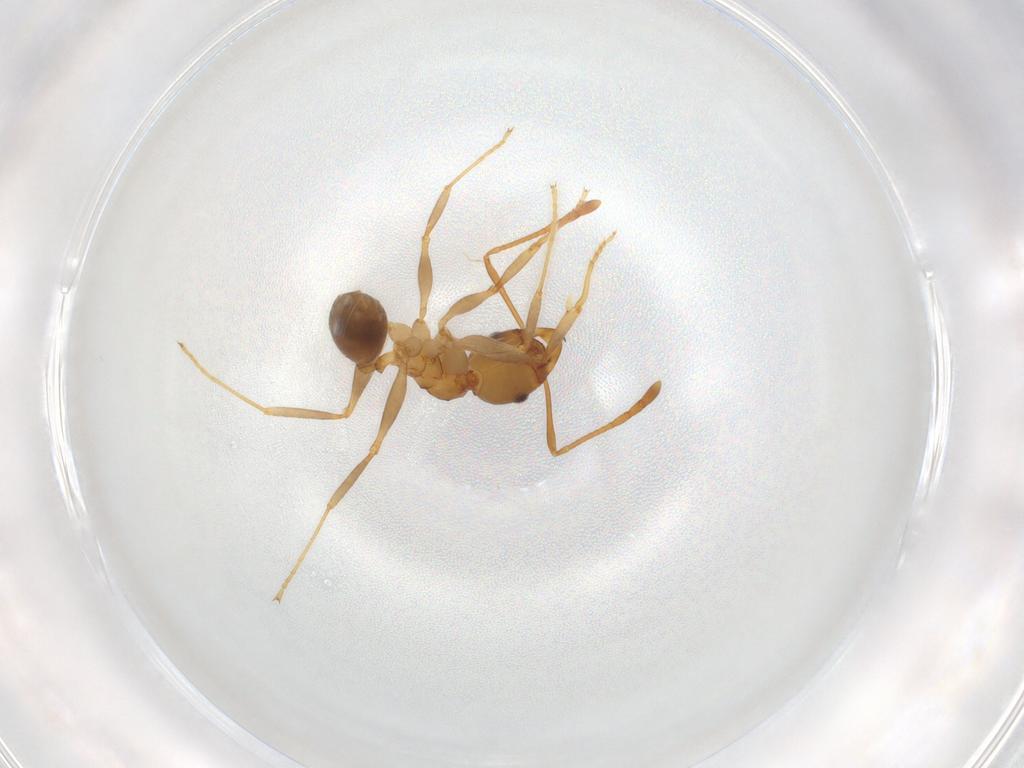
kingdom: Animalia
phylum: Arthropoda
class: Insecta
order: Hymenoptera
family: Formicidae
